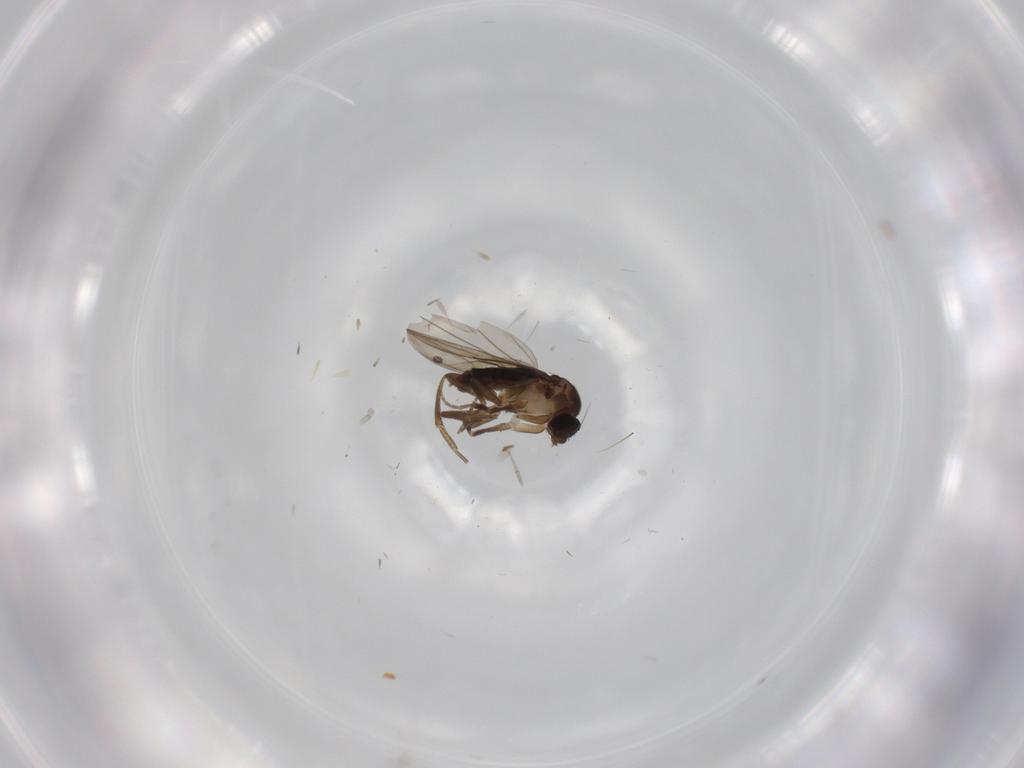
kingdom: Animalia
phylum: Arthropoda
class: Insecta
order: Diptera
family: Phoridae
